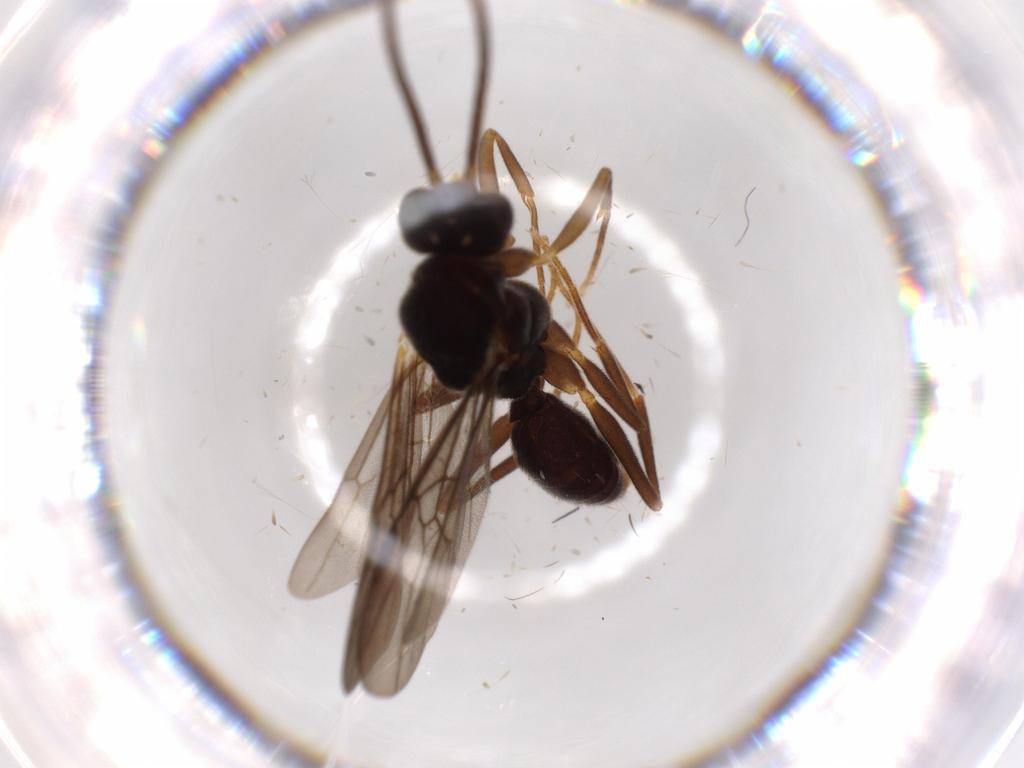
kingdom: Animalia
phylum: Arthropoda
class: Insecta
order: Hymenoptera
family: Formicidae
